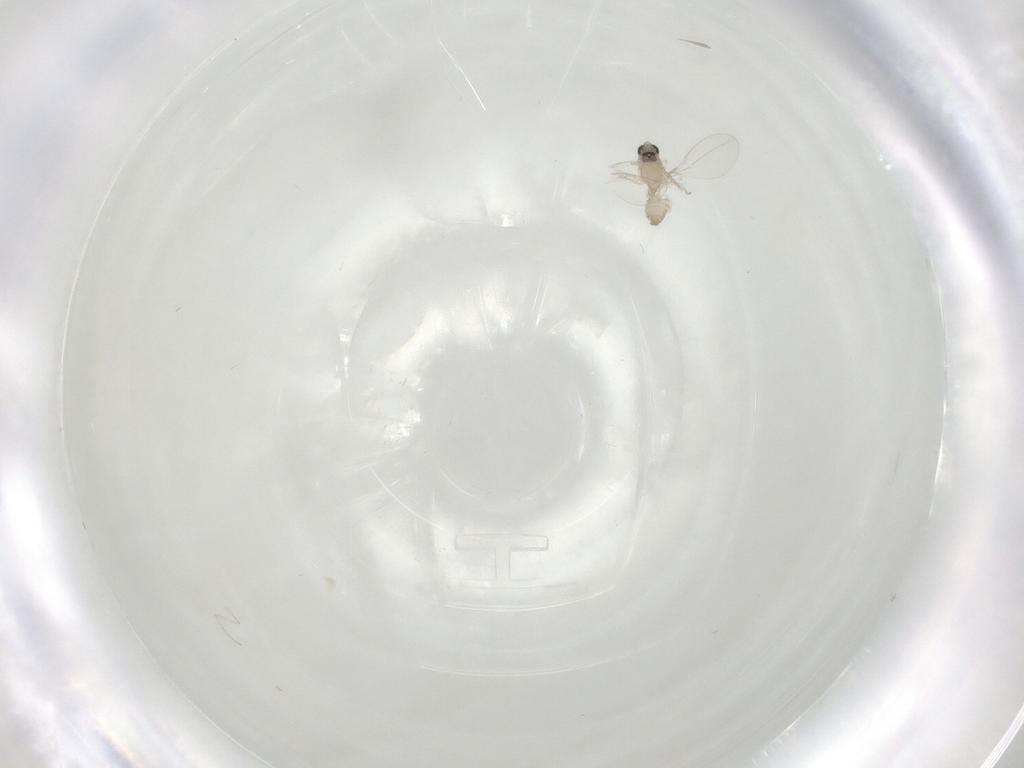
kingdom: Animalia
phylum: Arthropoda
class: Insecta
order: Diptera
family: Cecidomyiidae
